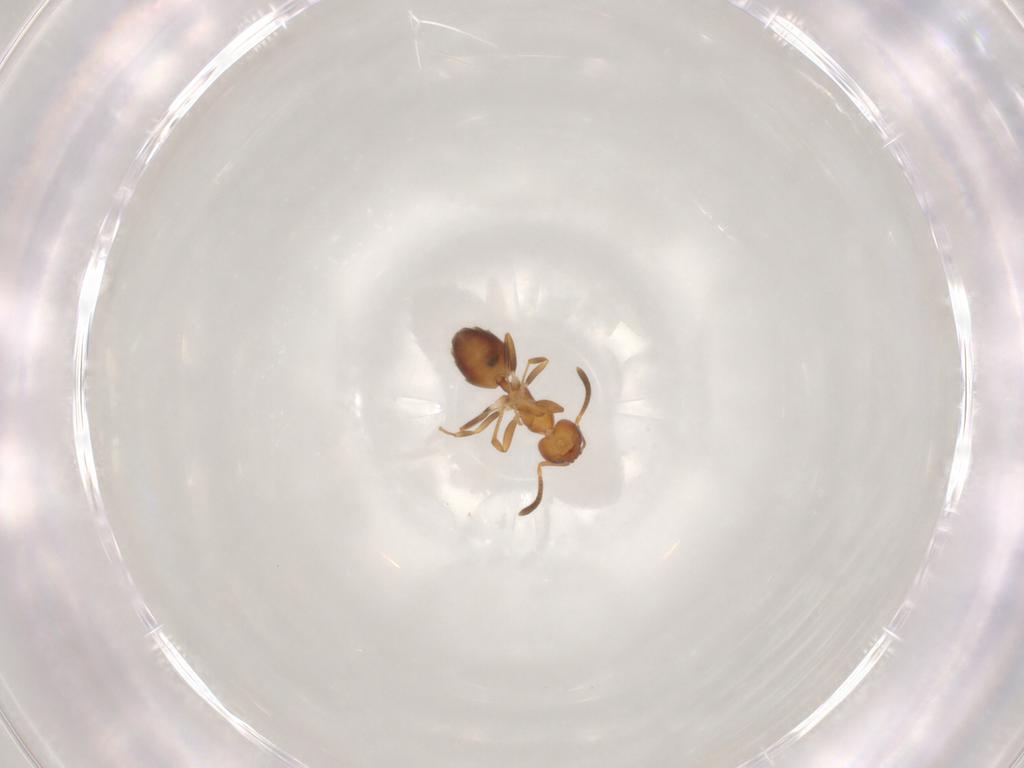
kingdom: Animalia
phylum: Arthropoda
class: Insecta
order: Hymenoptera
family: Formicidae
